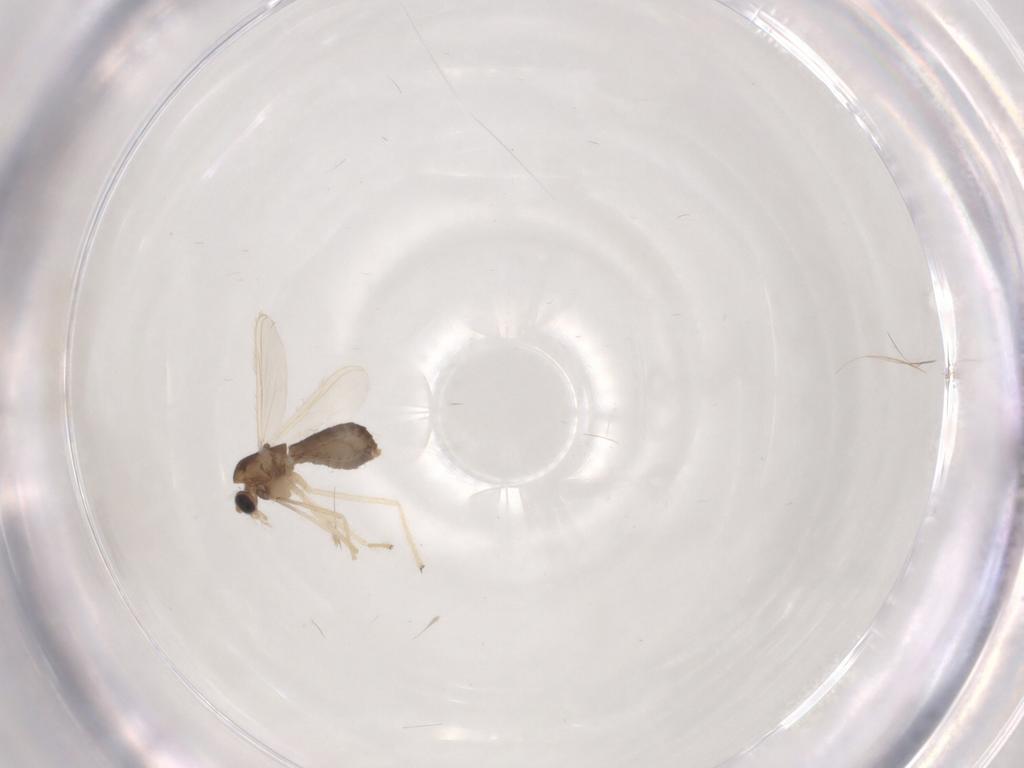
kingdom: Animalia
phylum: Arthropoda
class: Insecta
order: Diptera
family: Chironomidae
